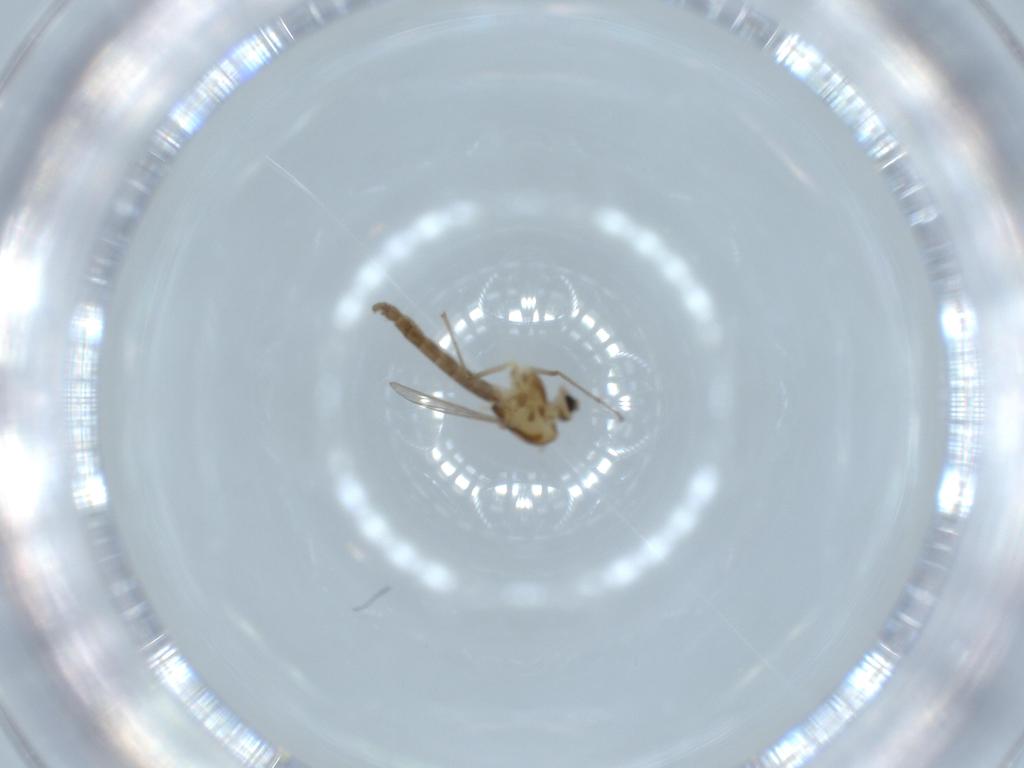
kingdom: Animalia
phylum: Arthropoda
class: Insecta
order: Diptera
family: Chironomidae
